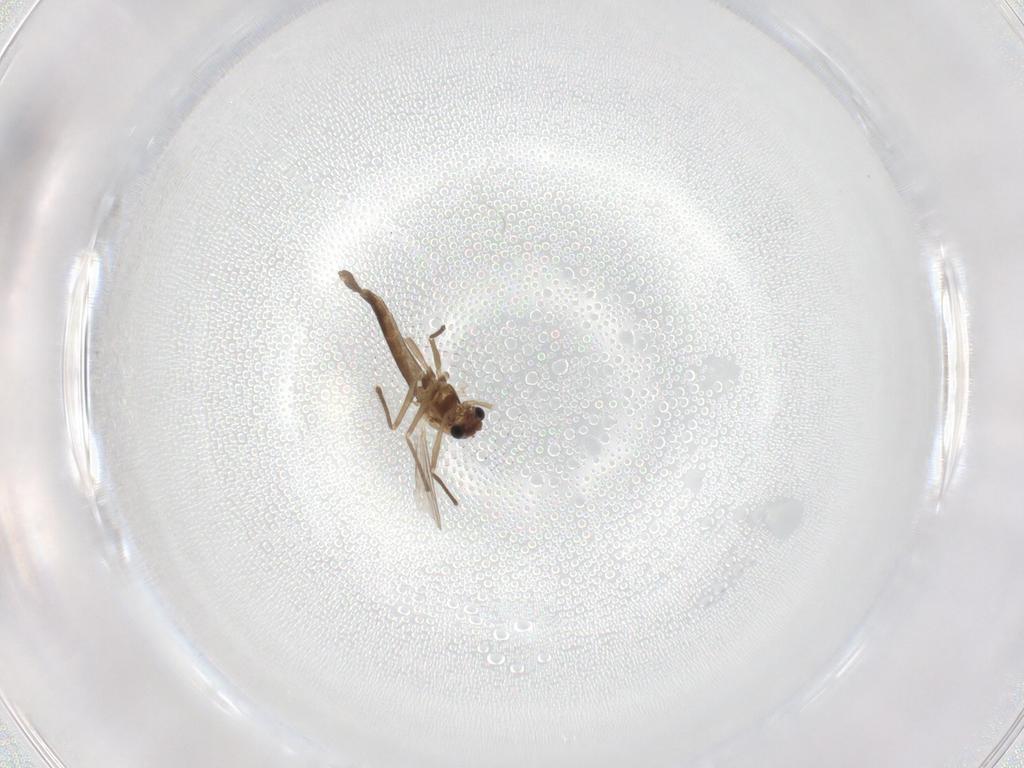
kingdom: Animalia
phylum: Arthropoda
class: Insecta
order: Diptera
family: Chironomidae
